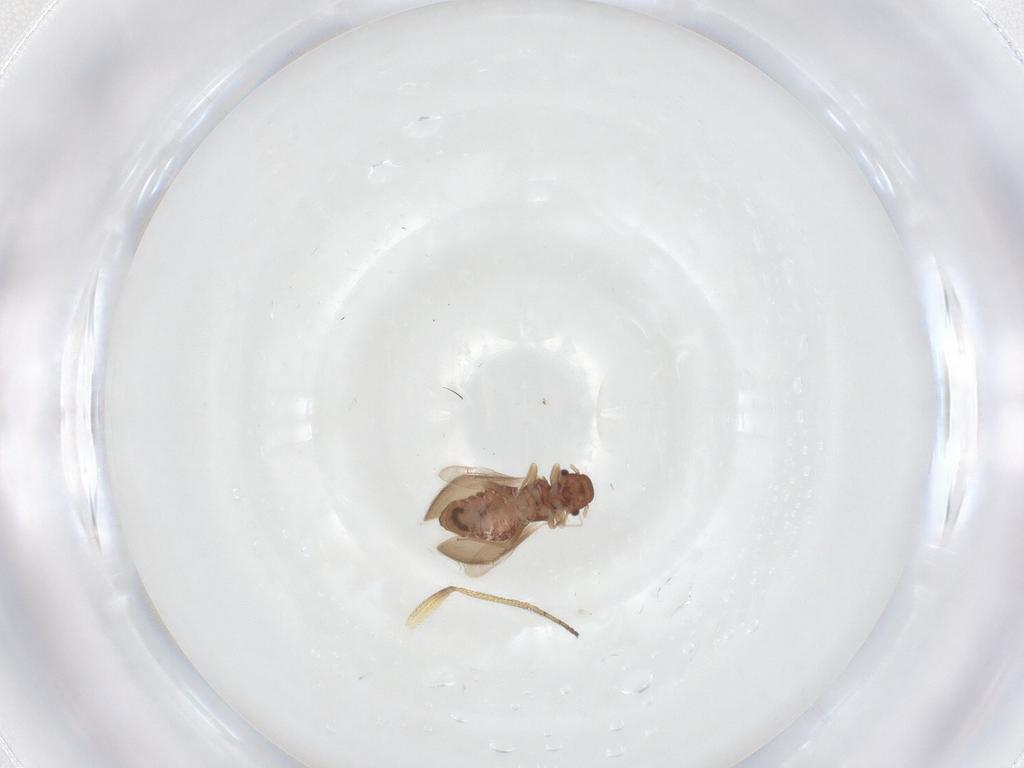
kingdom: Animalia
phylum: Arthropoda
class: Insecta
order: Psocodea
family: Archipsocidae
